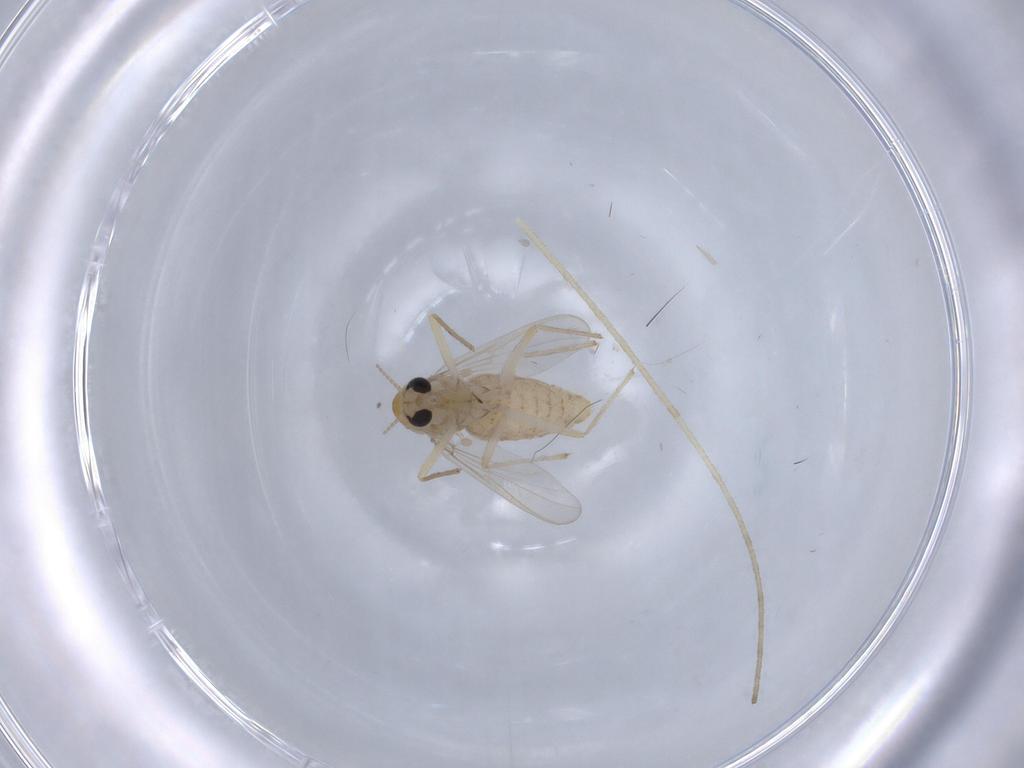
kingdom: Animalia
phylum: Arthropoda
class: Insecta
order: Diptera
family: Chironomidae
